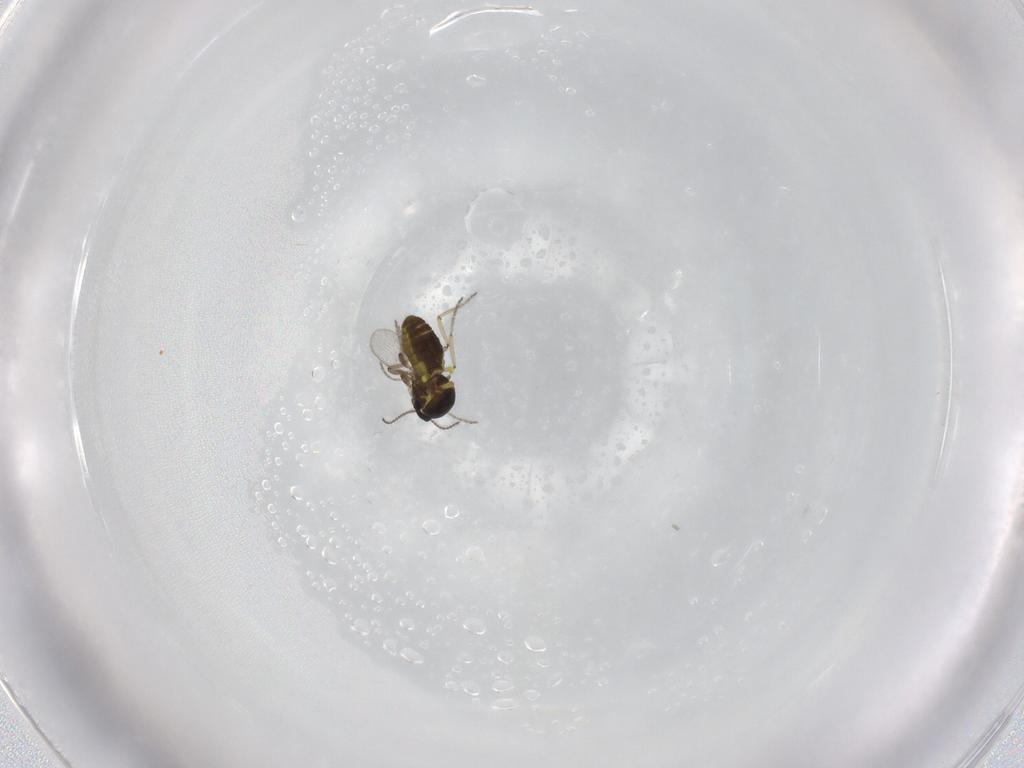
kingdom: Animalia
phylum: Arthropoda
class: Insecta
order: Diptera
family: Ceratopogonidae
